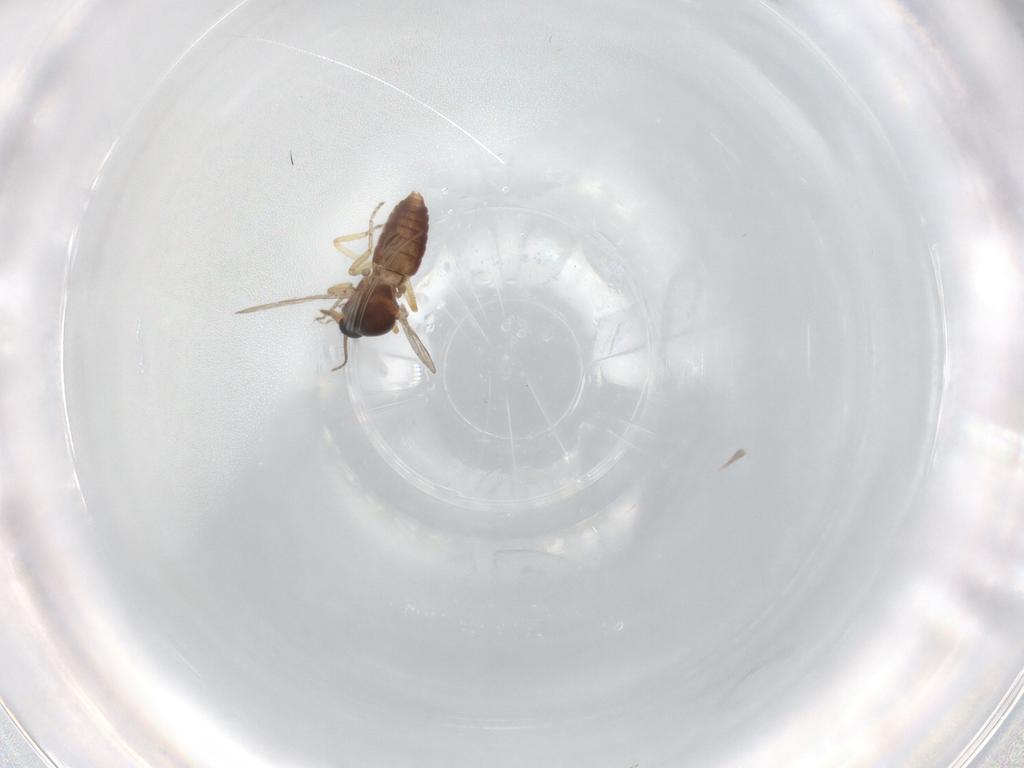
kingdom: Animalia
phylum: Arthropoda
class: Insecta
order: Diptera
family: Ceratopogonidae
